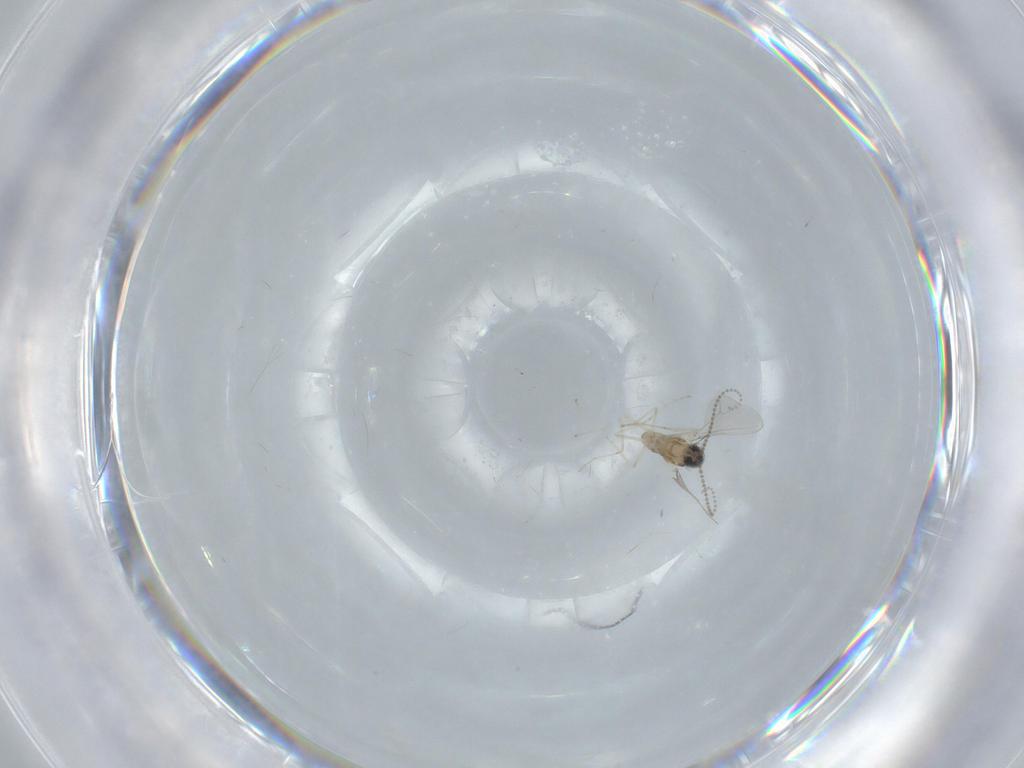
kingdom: Animalia
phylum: Arthropoda
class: Insecta
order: Diptera
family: Cecidomyiidae
